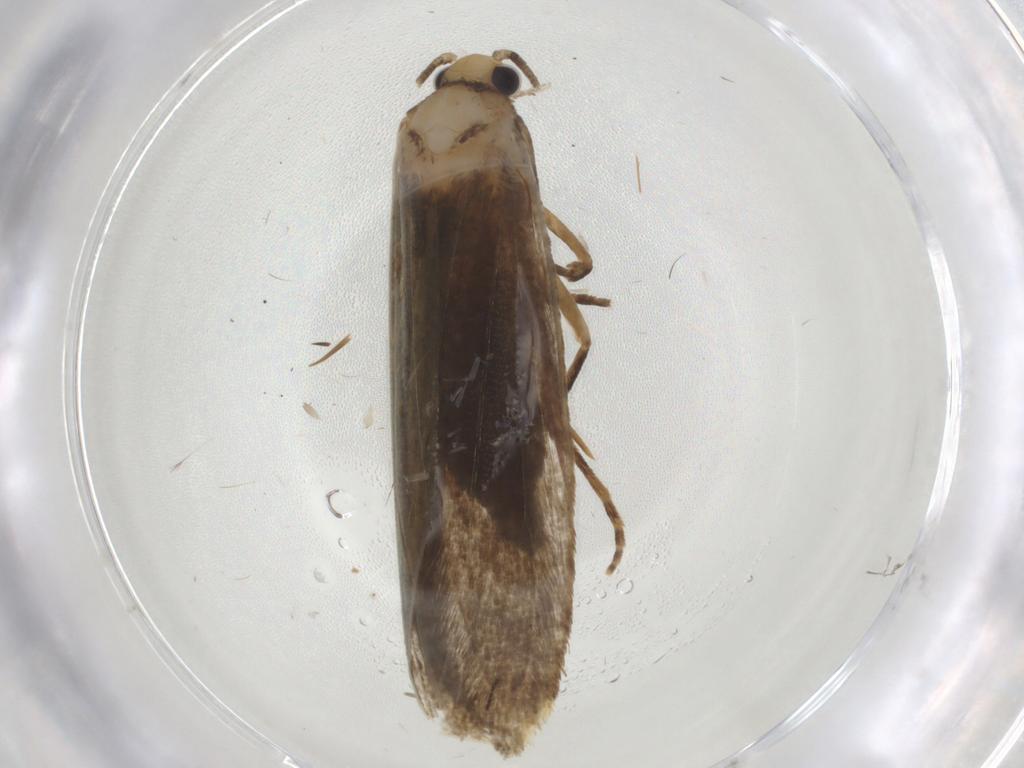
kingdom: Animalia
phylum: Arthropoda
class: Insecta
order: Lepidoptera
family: Tineidae
